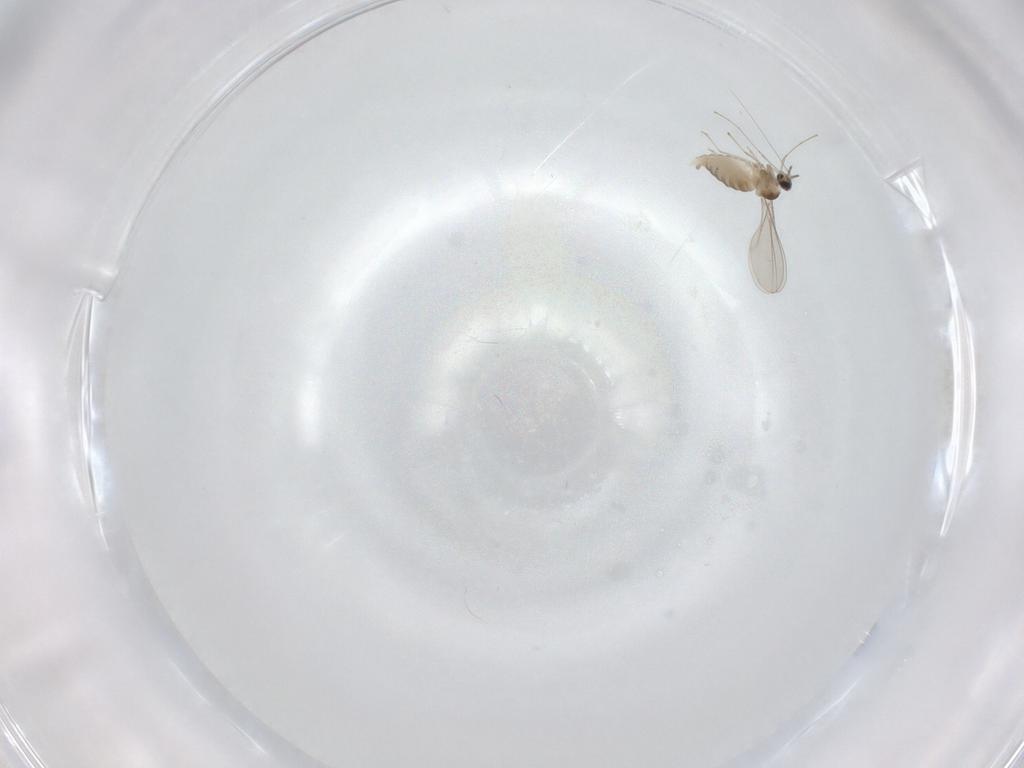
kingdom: Animalia
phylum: Arthropoda
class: Insecta
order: Diptera
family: Cecidomyiidae
